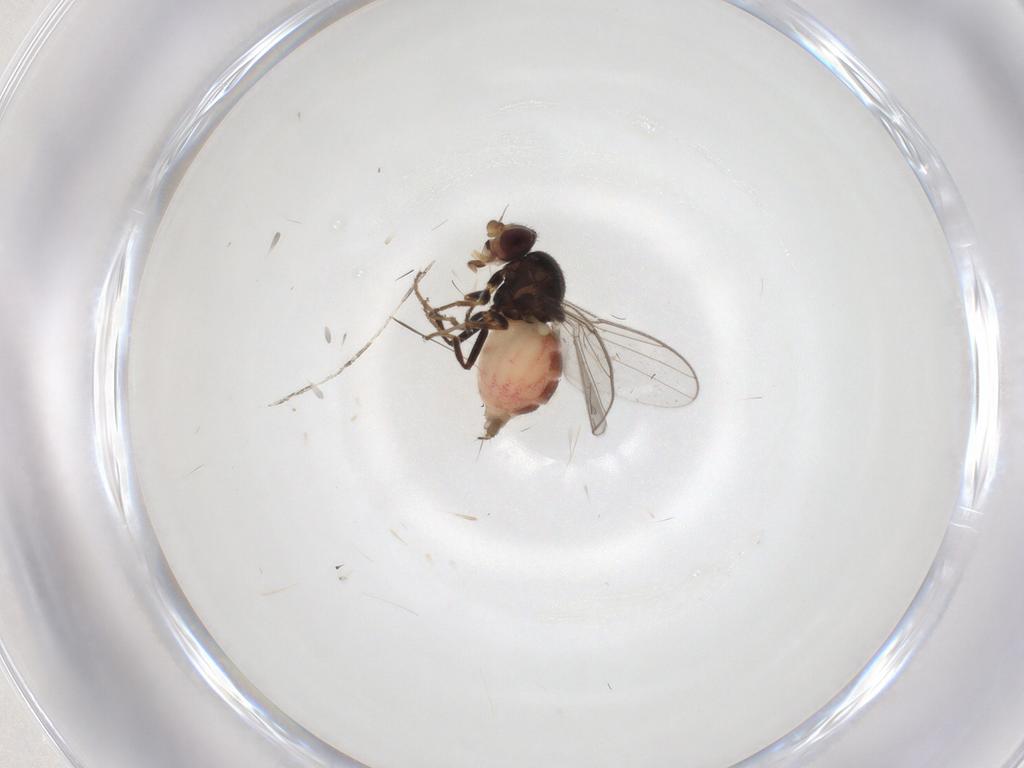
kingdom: Animalia
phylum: Arthropoda
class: Insecta
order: Diptera
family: Chloropidae
